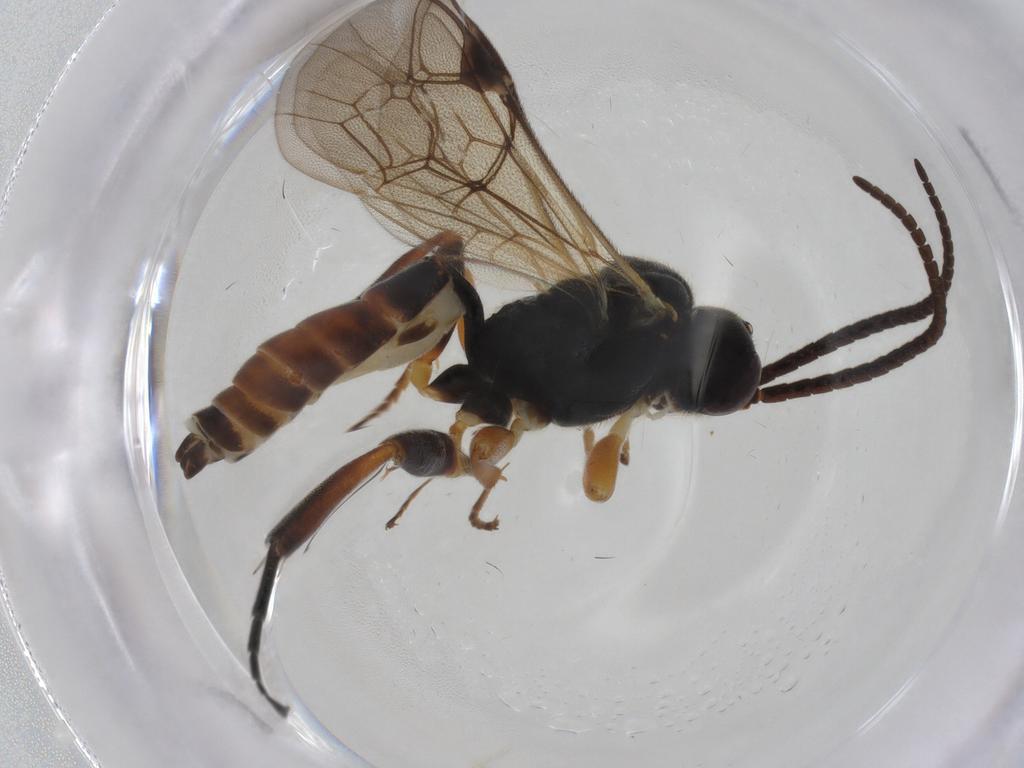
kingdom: Animalia
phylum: Arthropoda
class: Insecta
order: Hymenoptera
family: Ichneumonidae
